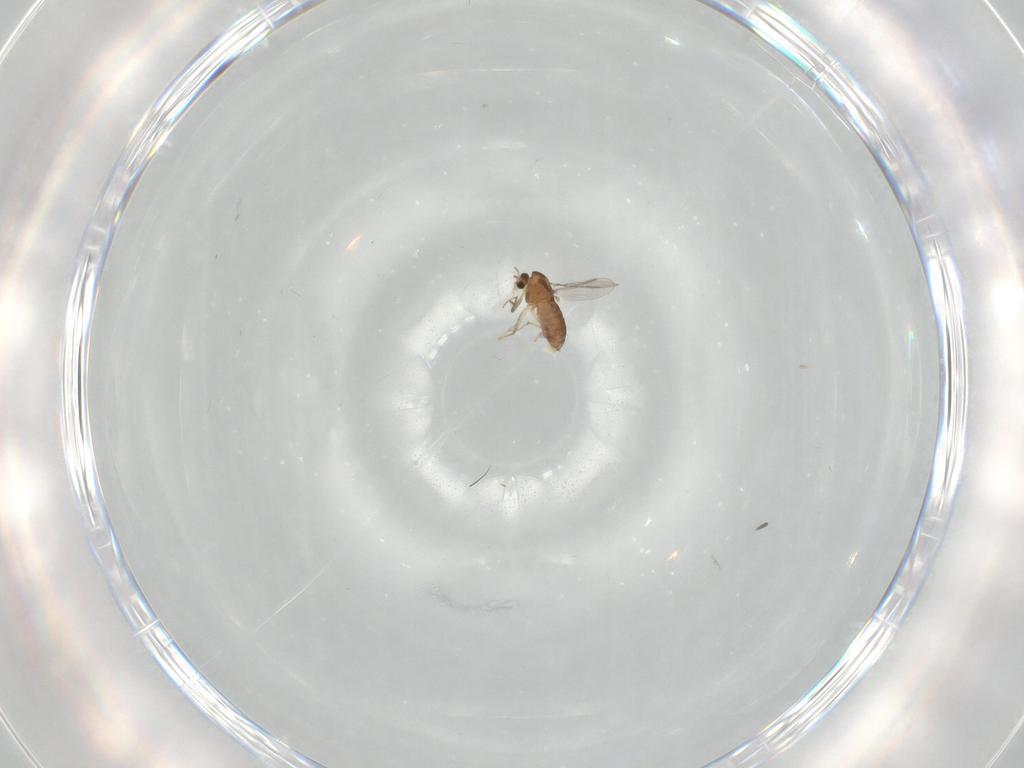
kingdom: Animalia
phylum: Arthropoda
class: Insecta
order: Diptera
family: Chironomidae
